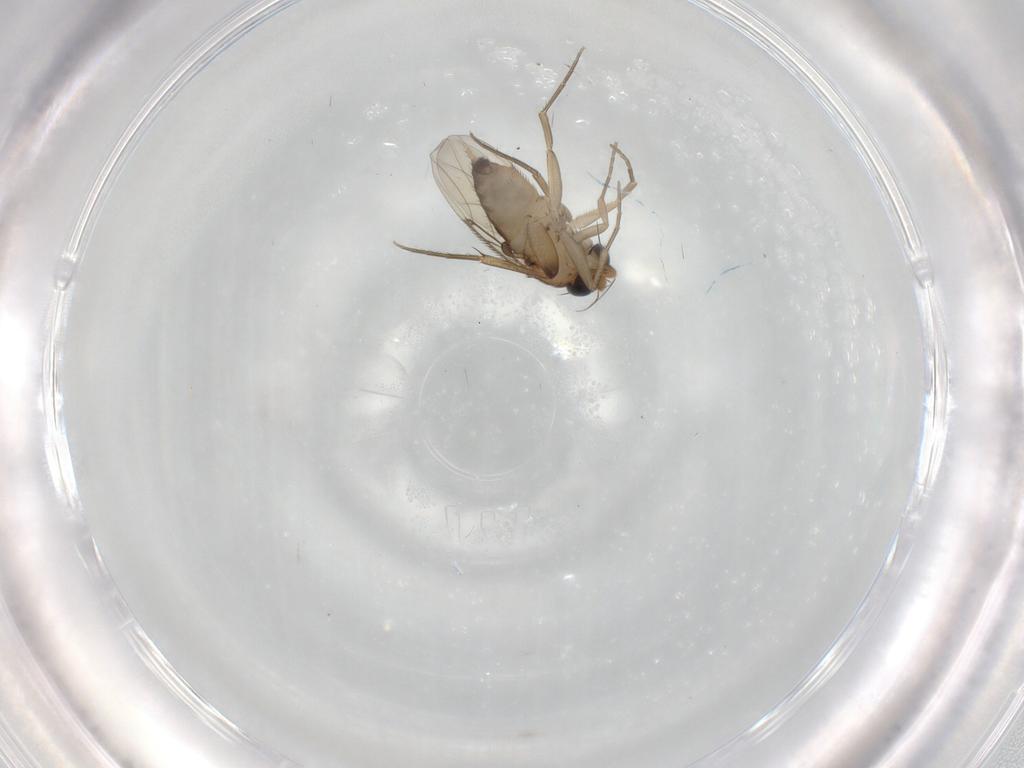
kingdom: Animalia
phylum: Arthropoda
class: Insecta
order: Diptera
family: Phoridae
